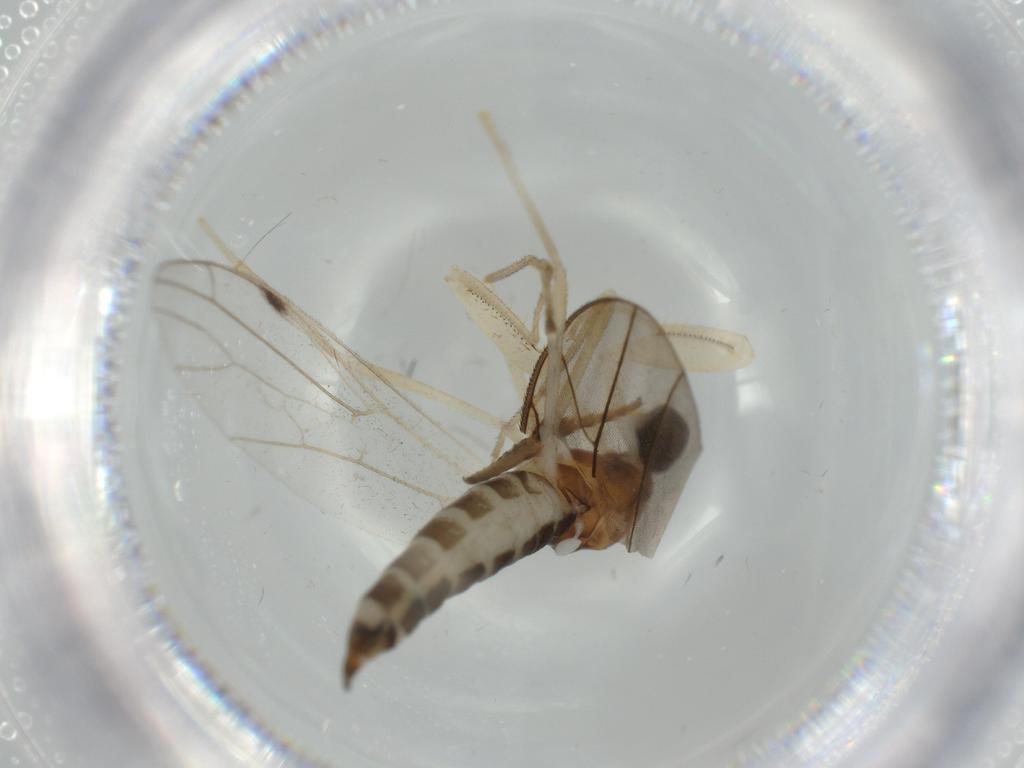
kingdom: Animalia
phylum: Arthropoda
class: Insecta
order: Diptera
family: Empididae
